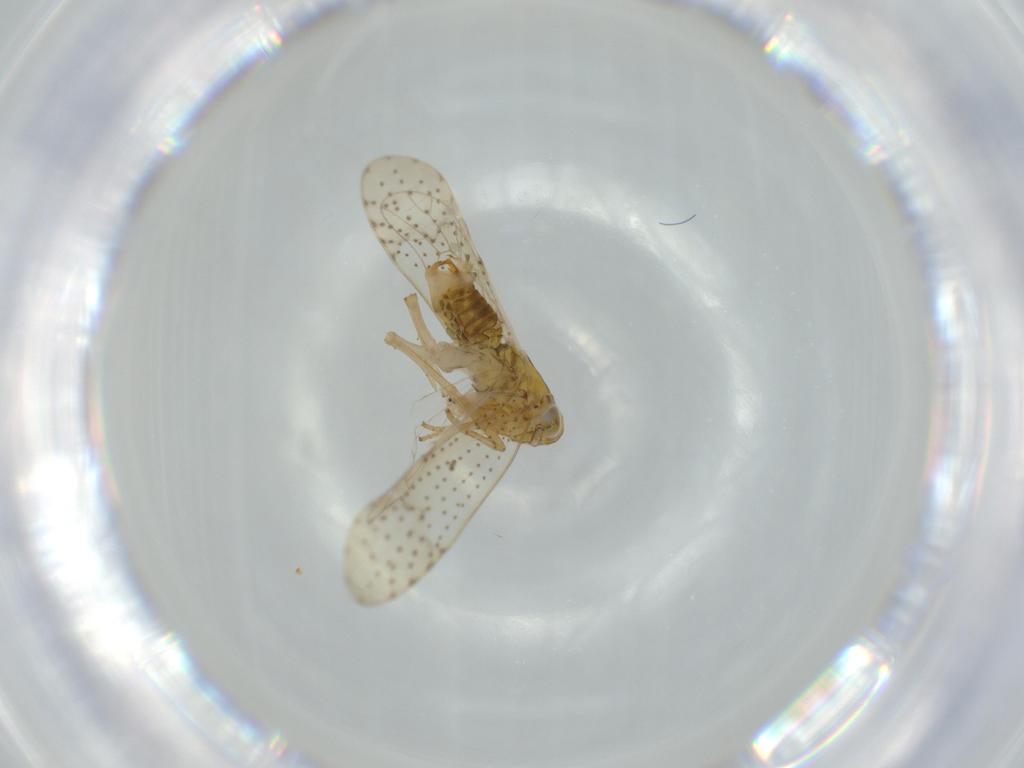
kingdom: Animalia
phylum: Arthropoda
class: Insecta
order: Hemiptera
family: Delphacidae
